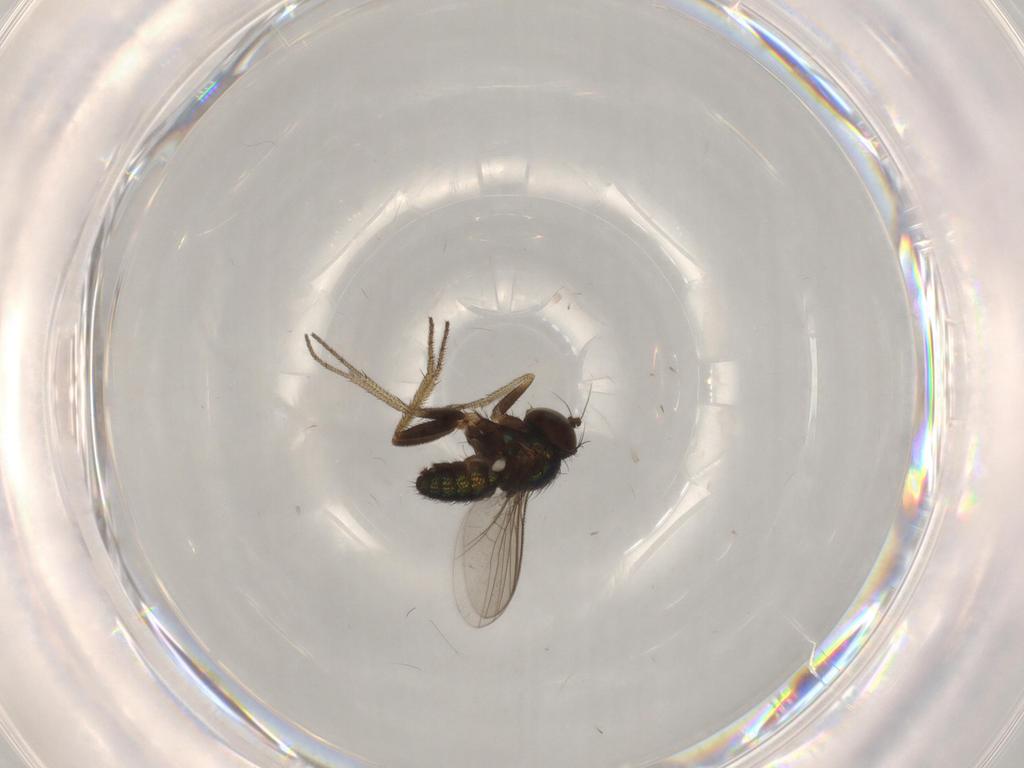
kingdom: Animalia
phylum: Arthropoda
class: Insecta
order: Diptera
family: Dolichopodidae
